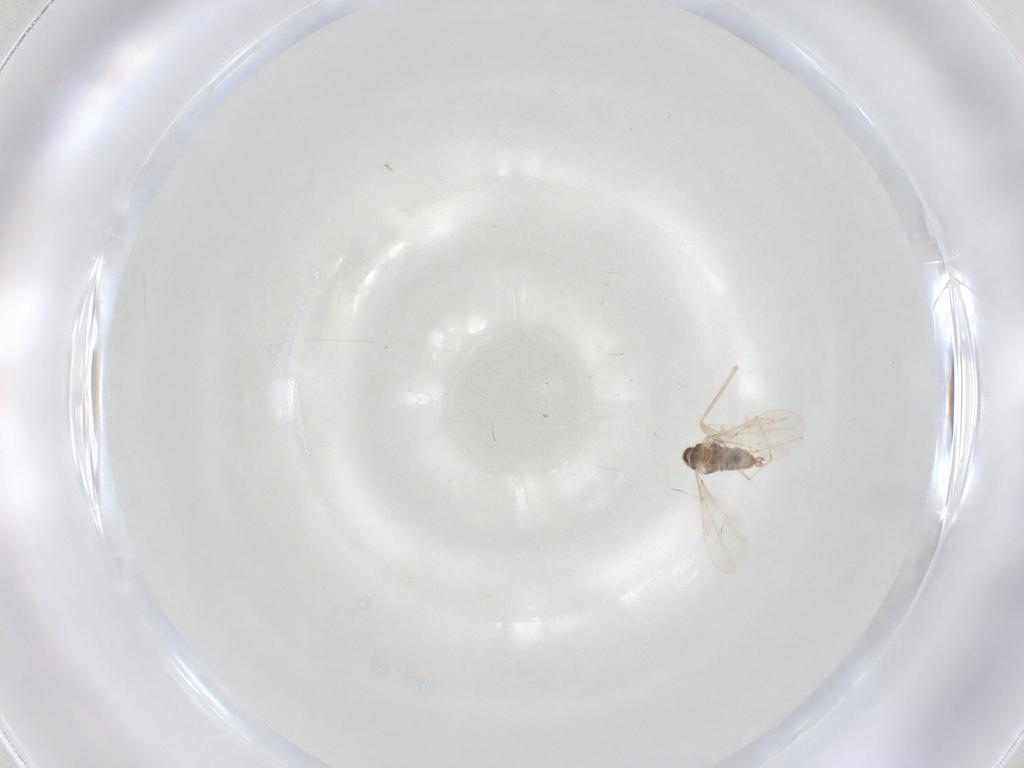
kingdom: Animalia
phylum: Arthropoda
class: Insecta
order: Diptera
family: Cecidomyiidae
